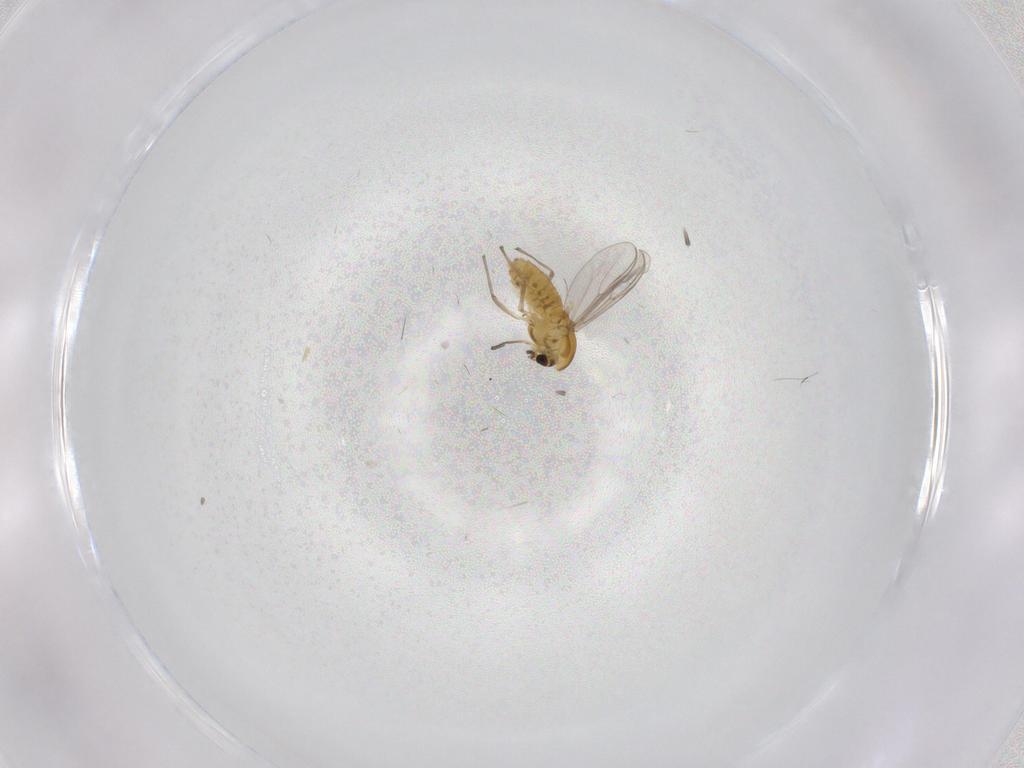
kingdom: Animalia
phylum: Arthropoda
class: Insecta
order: Diptera
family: Chironomidae
